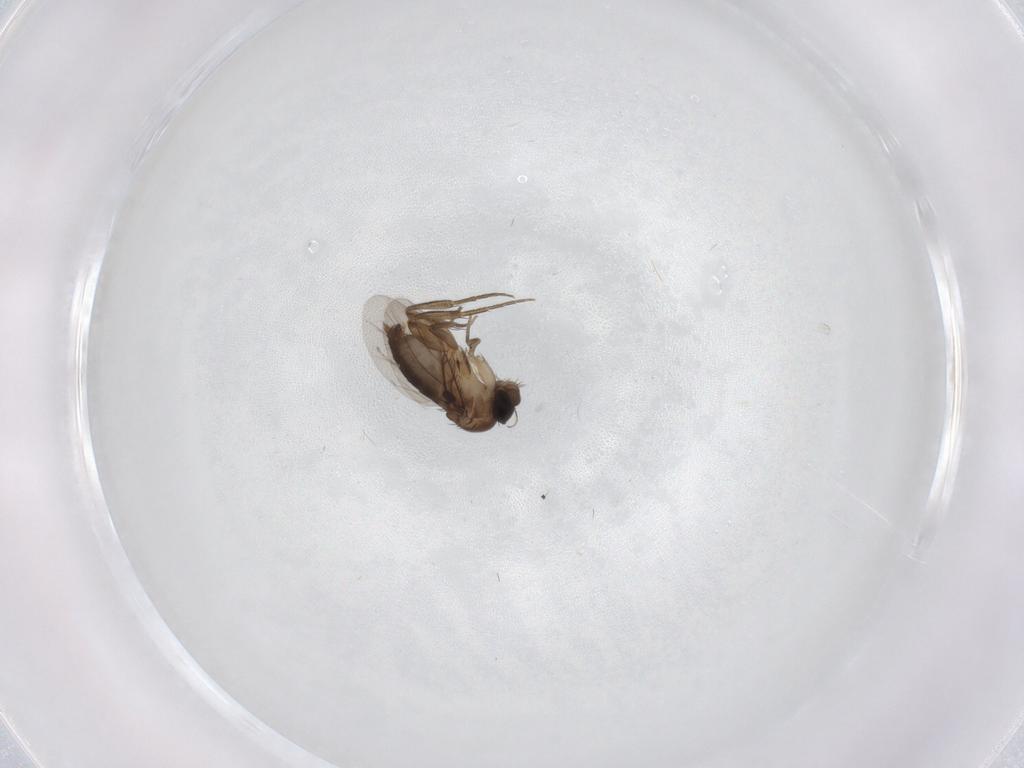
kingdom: Animalia
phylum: Arthropoda
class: Insecta
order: Diptera
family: Phoridae
